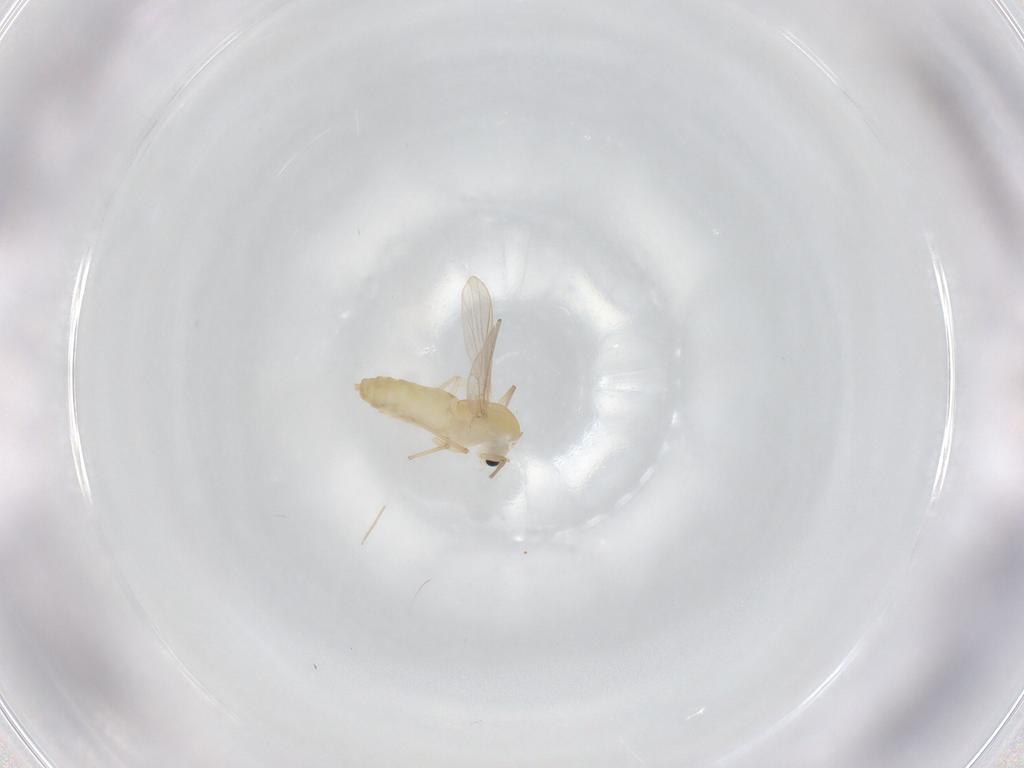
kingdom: Animalia
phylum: Arthropoda
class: Insecta
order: Diptera
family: Chironomidae
